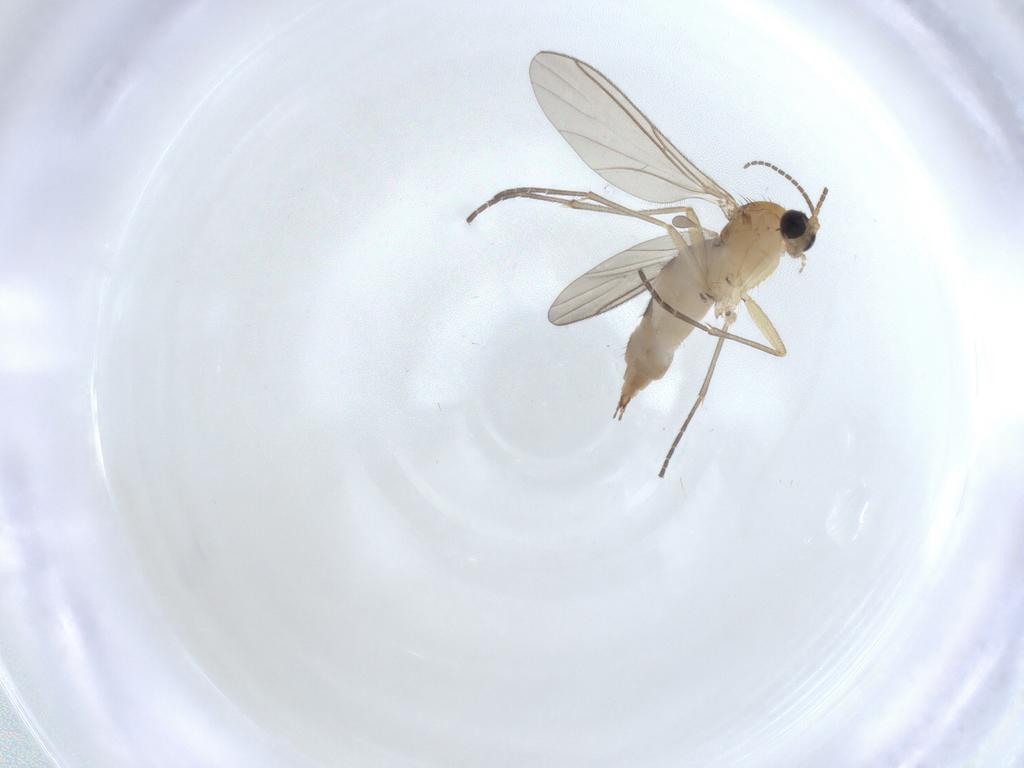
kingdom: Animalia
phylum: Arthropoda
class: Insecta
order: Diptera
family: Sciaridae
